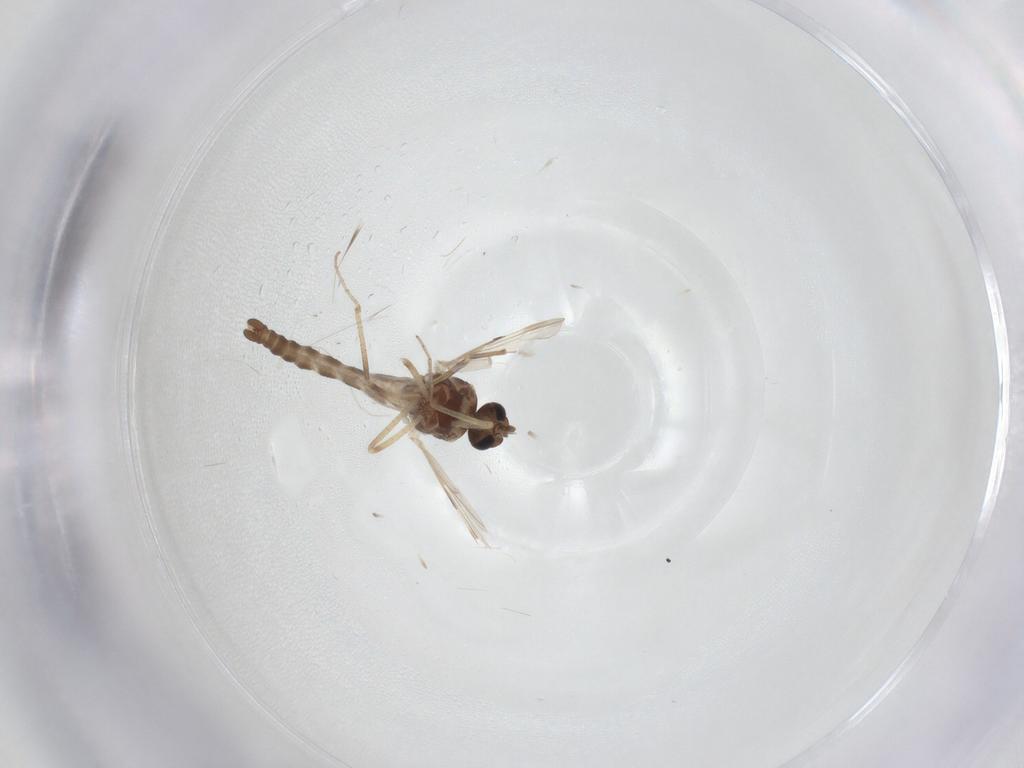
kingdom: Animalia
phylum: Arthropoda
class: Insecta
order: Diptera
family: Ceratopogonidae
